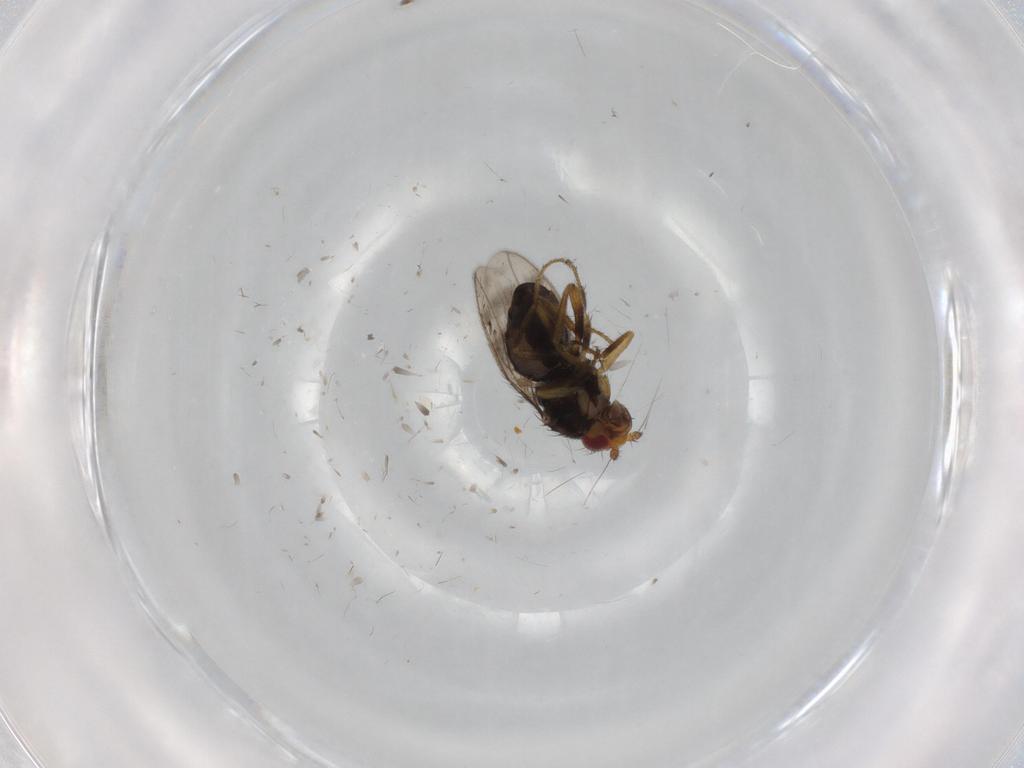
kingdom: Animalia
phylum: Arthropoda
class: Insecta
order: Diptera
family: Sphaeroceridae
